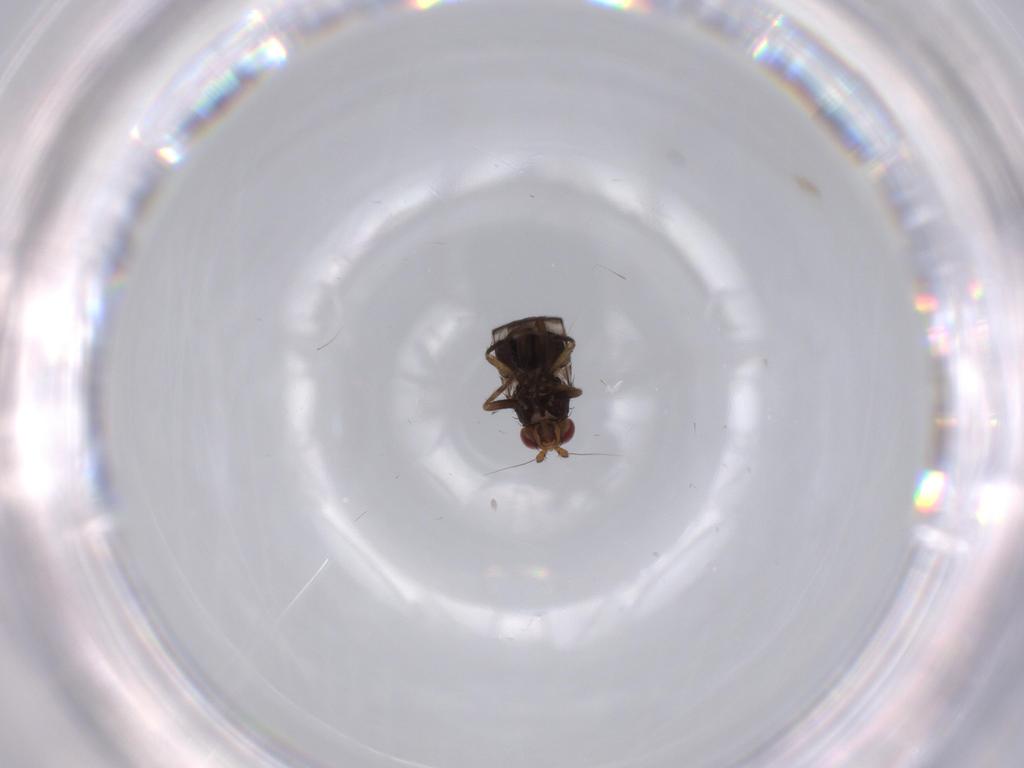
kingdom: Animalia
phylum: Arthropoda
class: Insecta
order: Diptera
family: Sphaeroceridae
